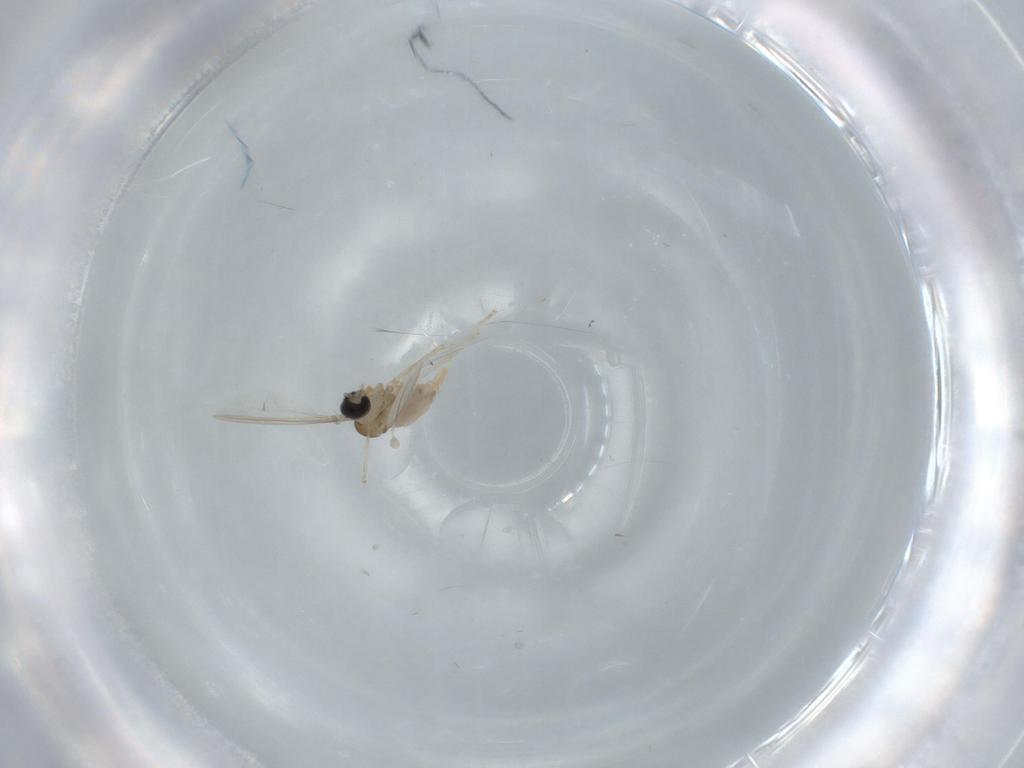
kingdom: Animalia
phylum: Arthropoda
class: Insecta
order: Diptera
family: Cecidomyiidae
